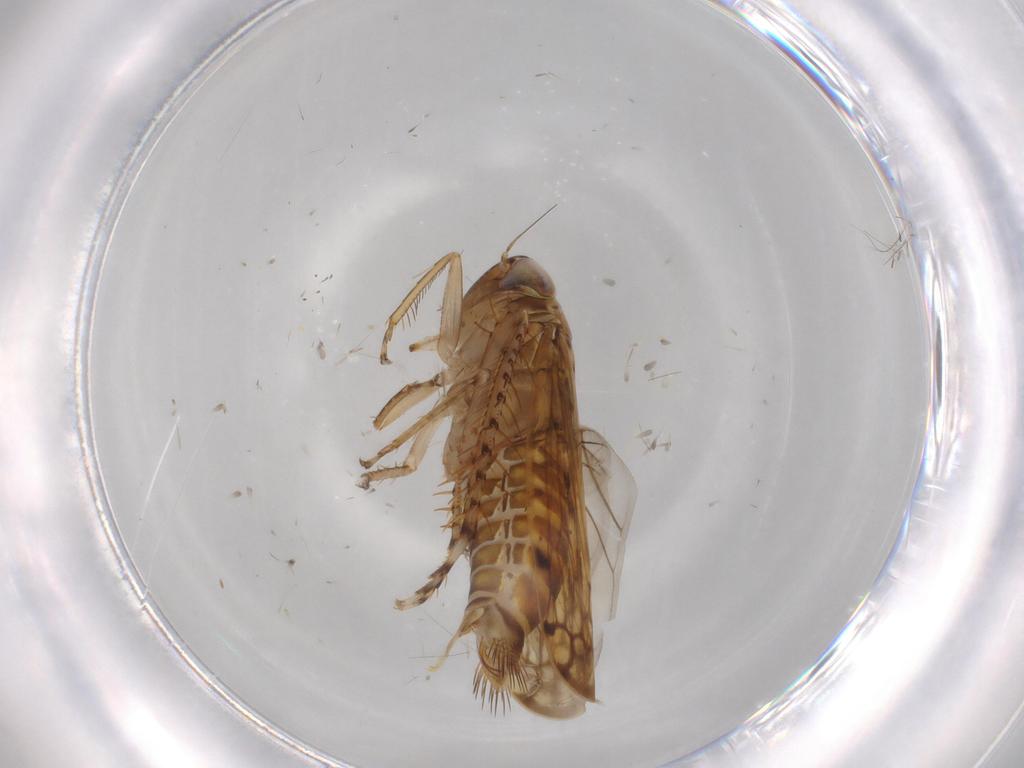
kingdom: Animalia
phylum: Arthropoda
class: Insecta
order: Hemiptera
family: Cicadellidae
